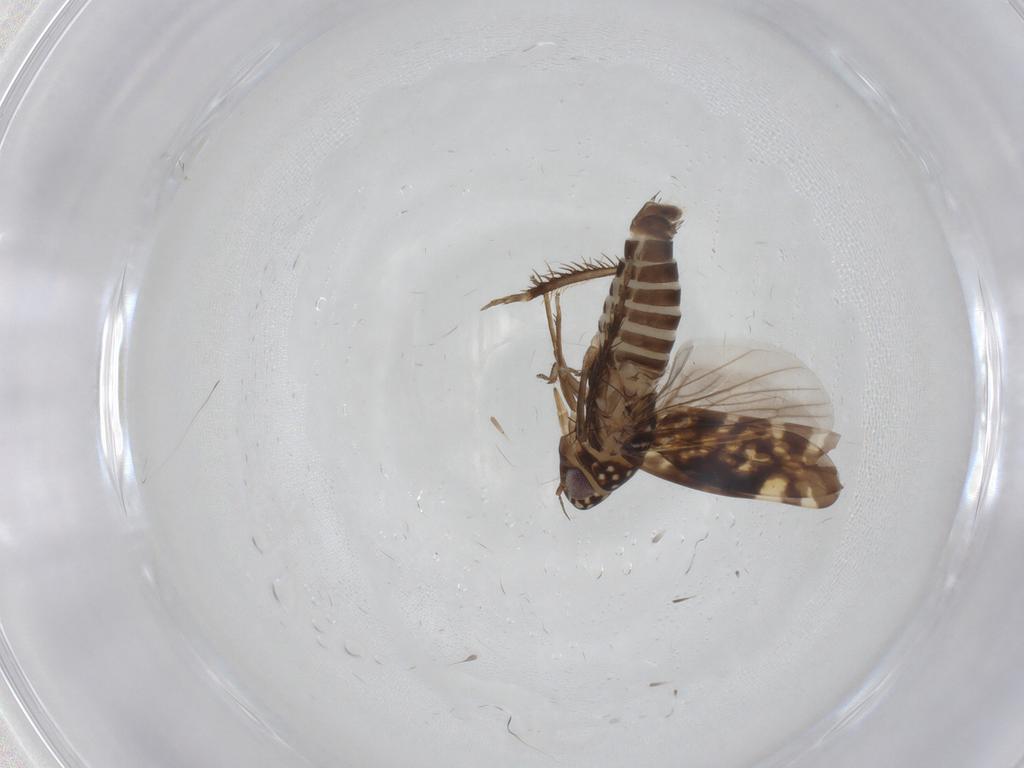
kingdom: Animalia
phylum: Arthropoda
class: Insecta
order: Hemiptera
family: Cicadellidae
